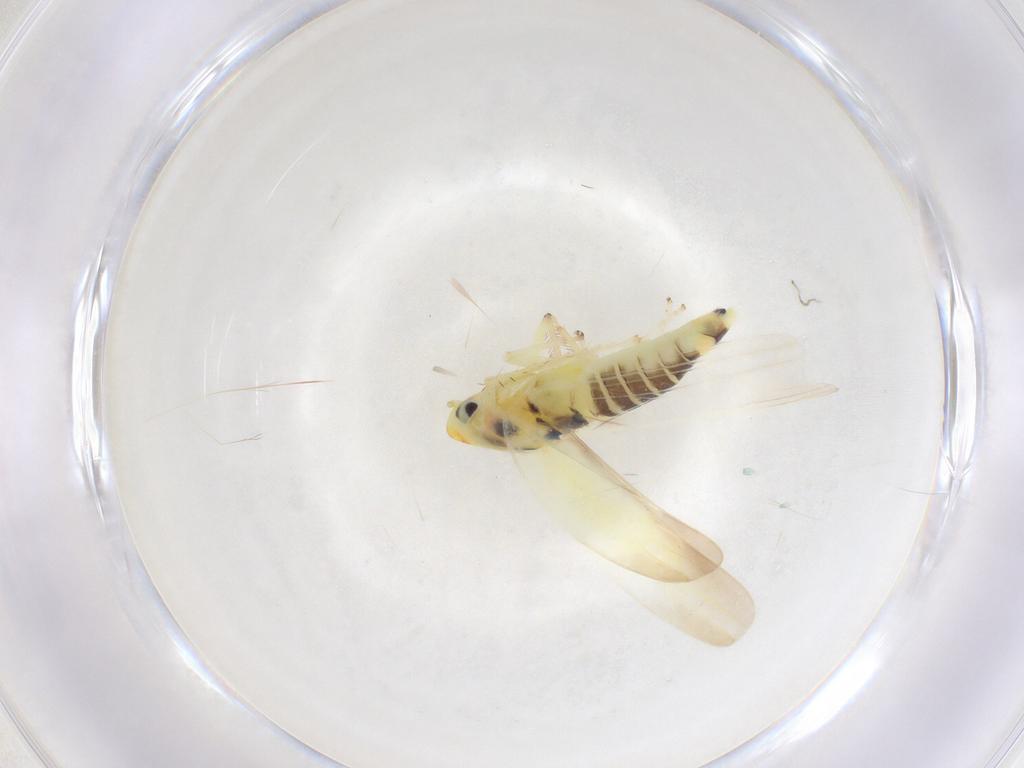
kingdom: Animalia
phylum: Arthropoda
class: Insecta
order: Hemiptera
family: Cicadellidae
